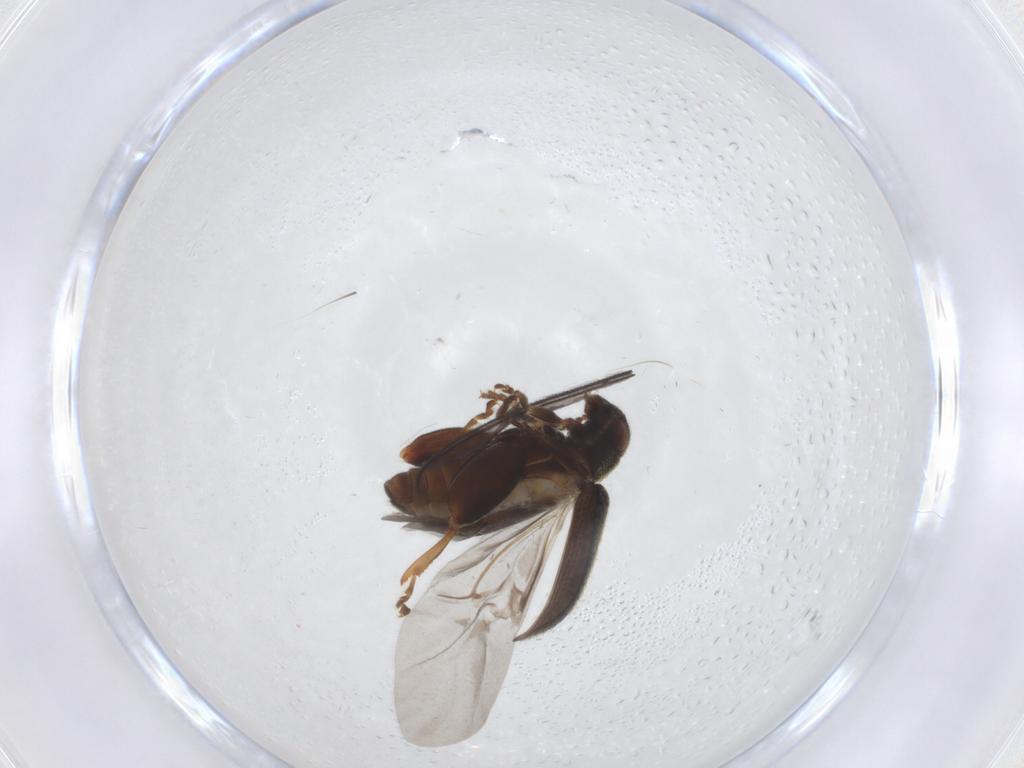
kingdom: Animalia
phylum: Arthropoda
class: Insecta
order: Coleoptera
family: Chrysomelidae
